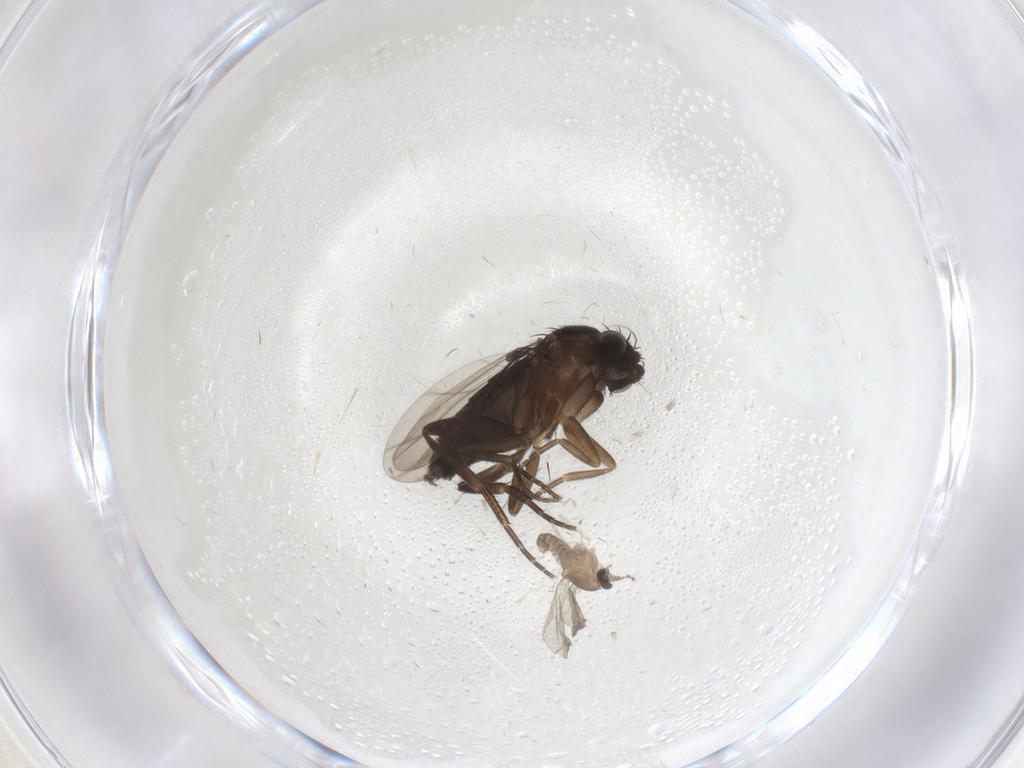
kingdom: Animalia
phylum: Arthropoda
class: Insecta
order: Diptera
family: Phoridae
